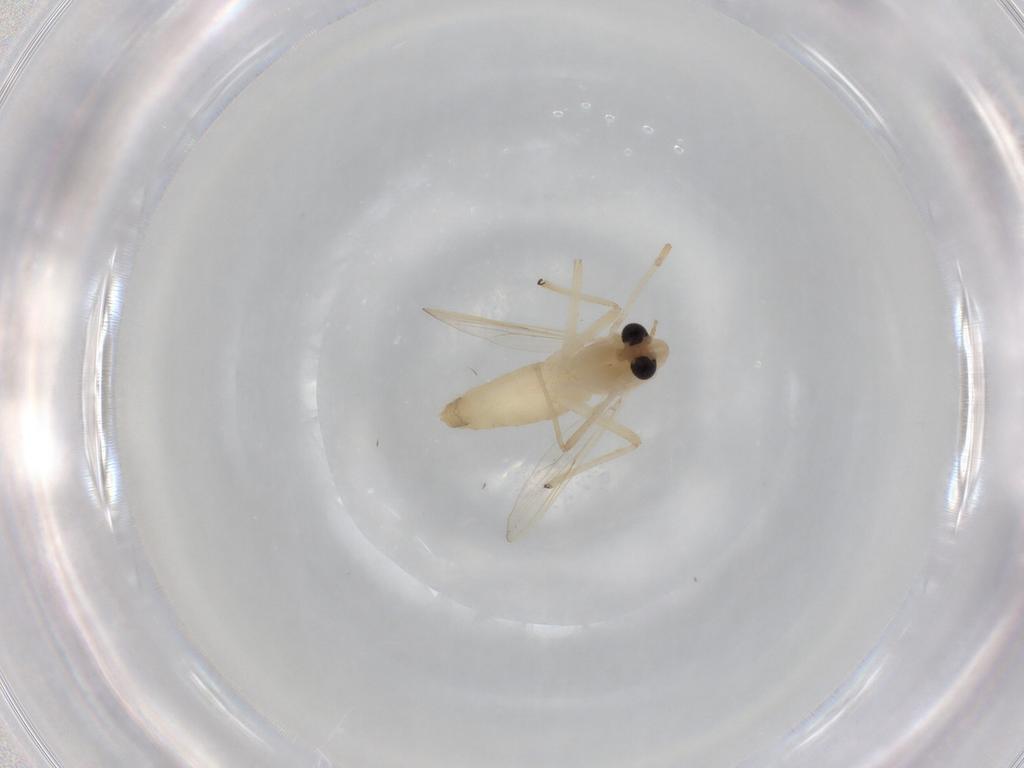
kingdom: Animalia
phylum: Arthropoda
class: Insecta
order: Diptera
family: Chironomidae
